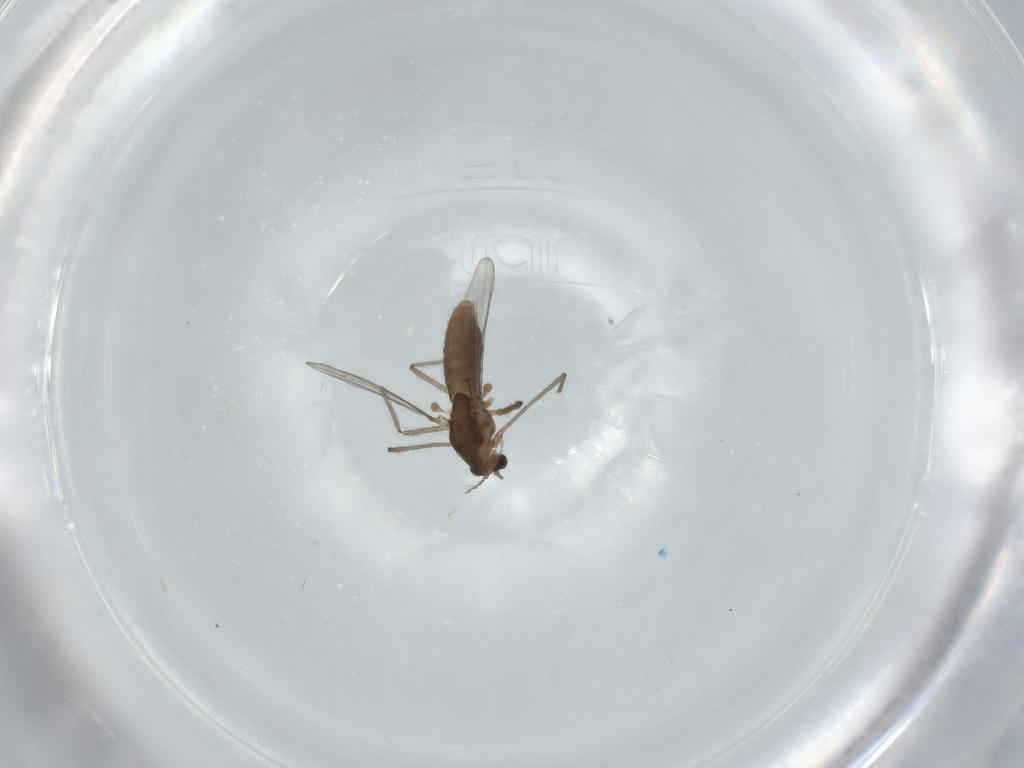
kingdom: Animalia
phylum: Arthropoda
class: Insecta
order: Diptera
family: Chironomidae
